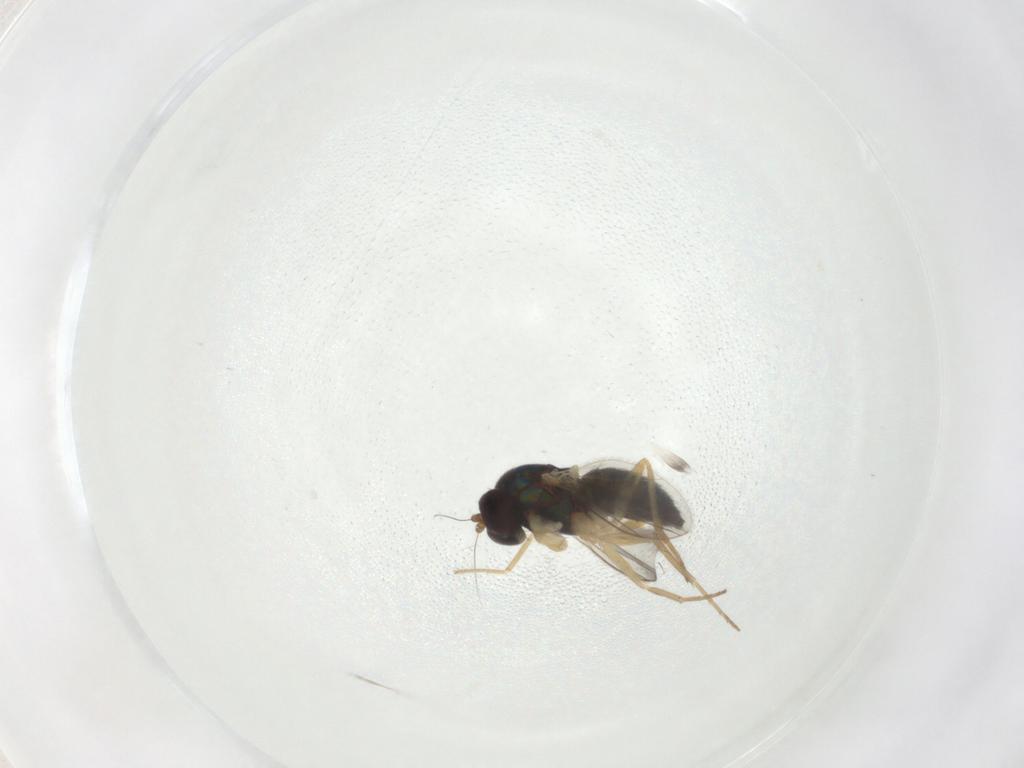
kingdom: Animalia
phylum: Arthropoda
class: Insecta
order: Diptera
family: Dolichopodidae
